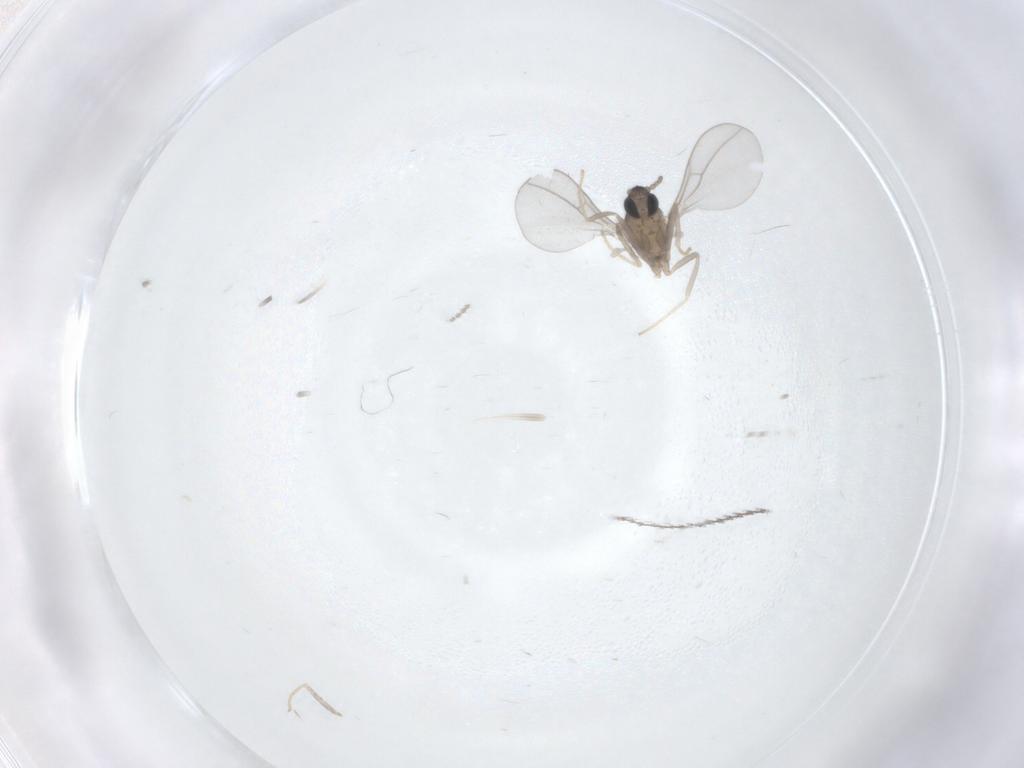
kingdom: Animalia
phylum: Arthropoda
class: Insecta
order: Diptera
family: Cecidomyiidae
